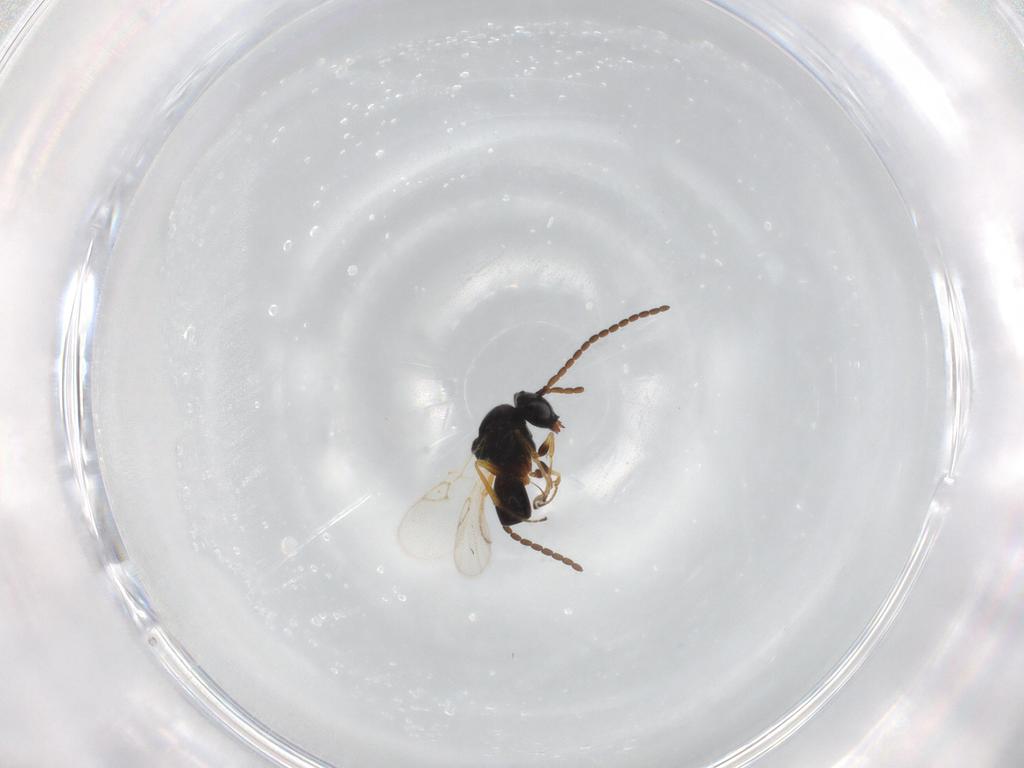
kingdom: Animalia
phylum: Arthropoda
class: Insecta
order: Hymenoptera
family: Figitidae
